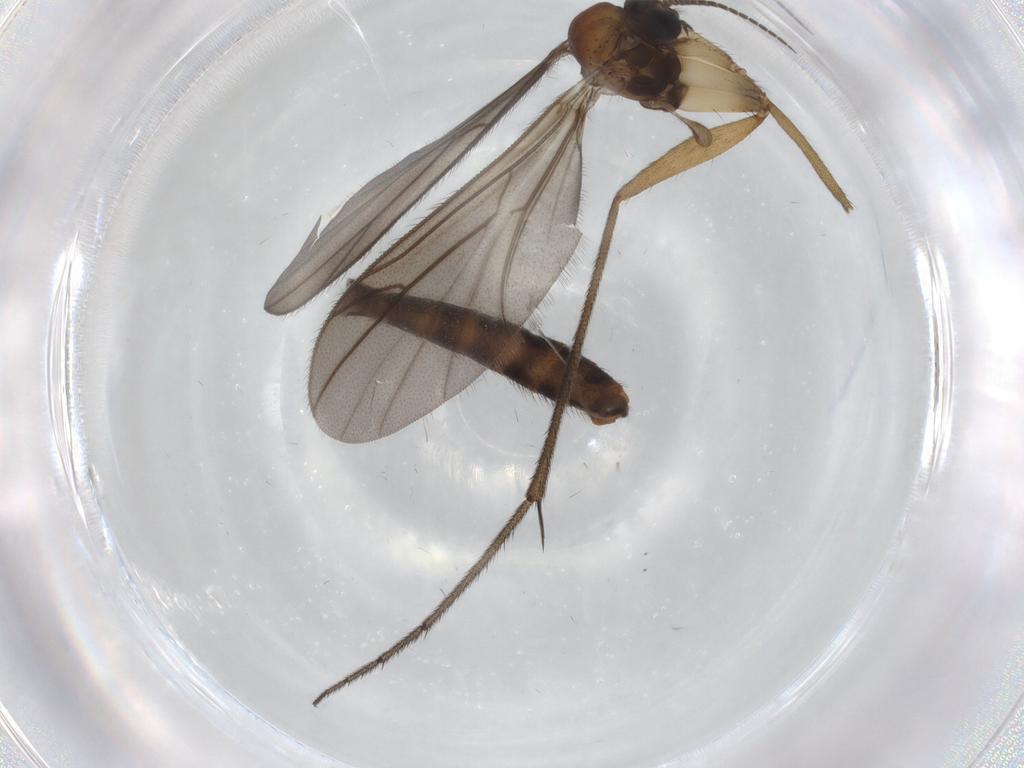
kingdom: Animalia
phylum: Arthropoda
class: Insecta
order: Diptera
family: Ditomyiidae
